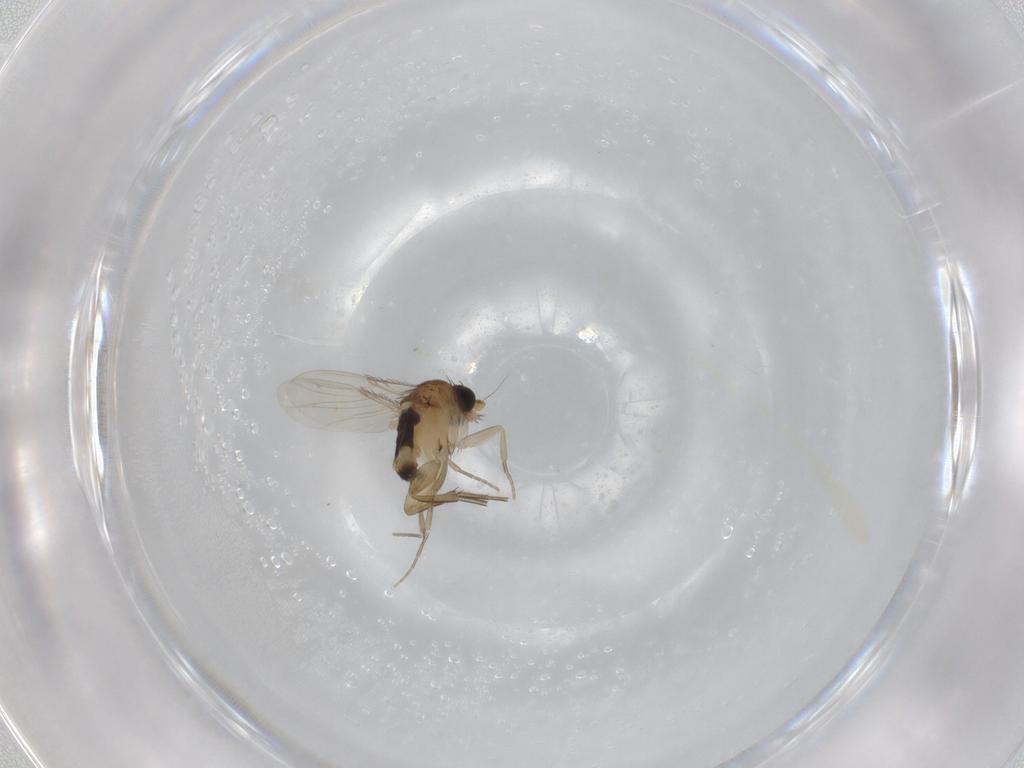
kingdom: Animalia
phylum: Arthropoda
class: Insecta
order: Diptera
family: Phoridae
